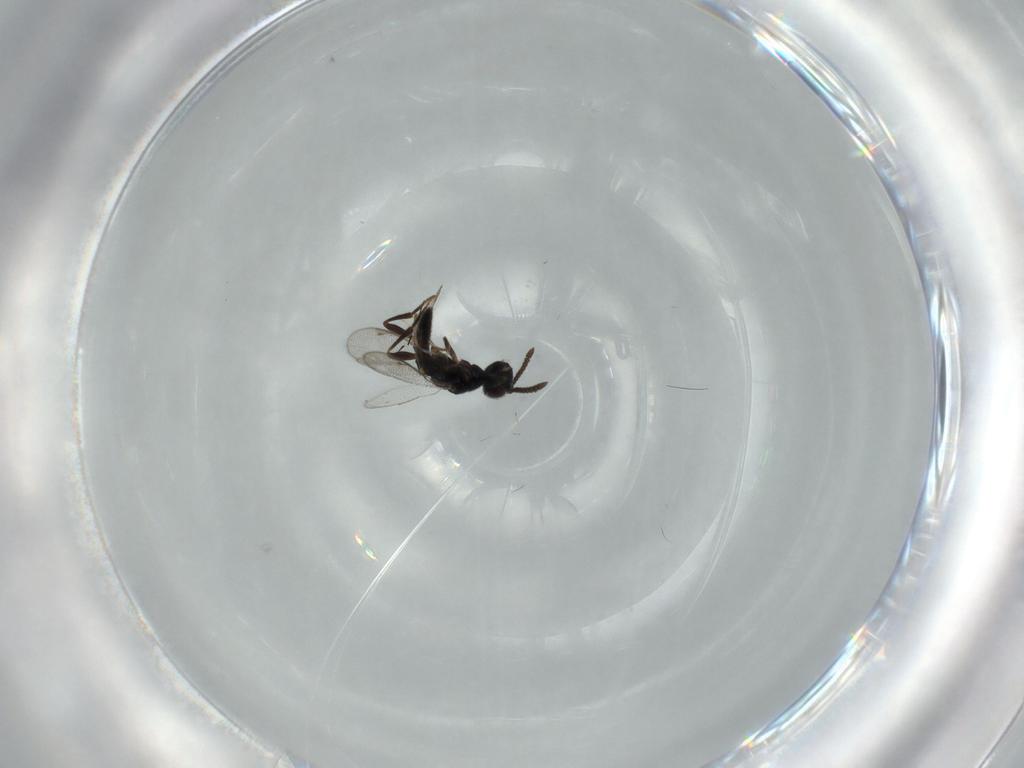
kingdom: Animalia
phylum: Arthropoda
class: Insecta
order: Hymenoptera
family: Cleonyminae
